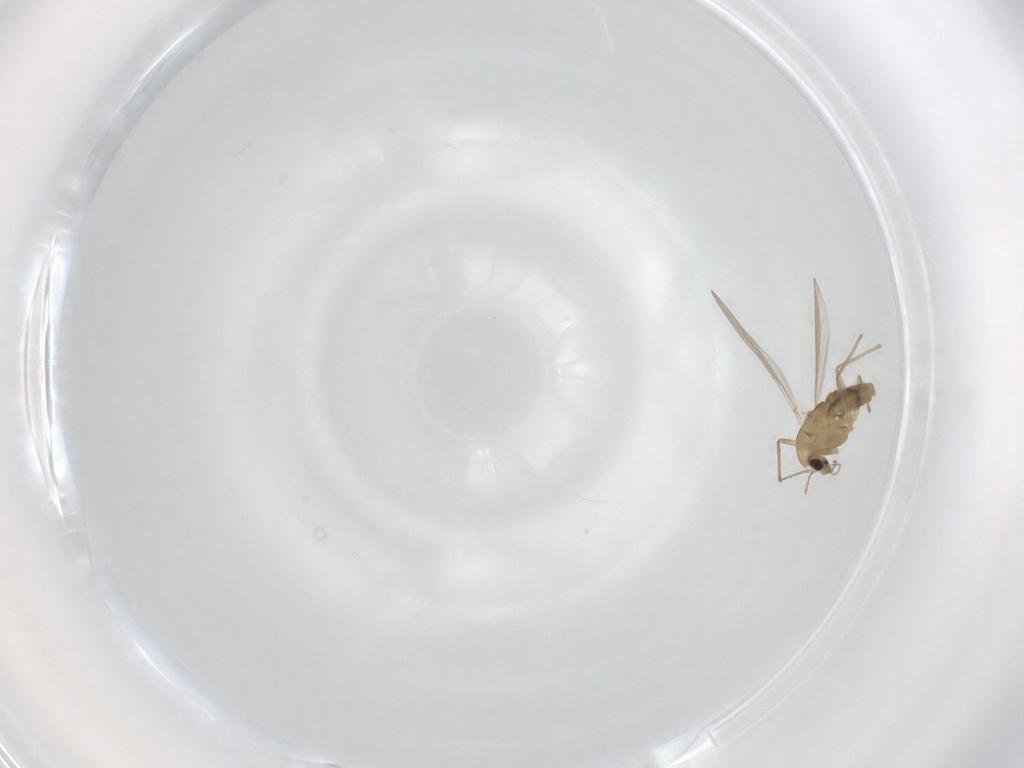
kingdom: Animalia
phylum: Arthropoda
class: Insecta
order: Diptera
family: Chironomidae
